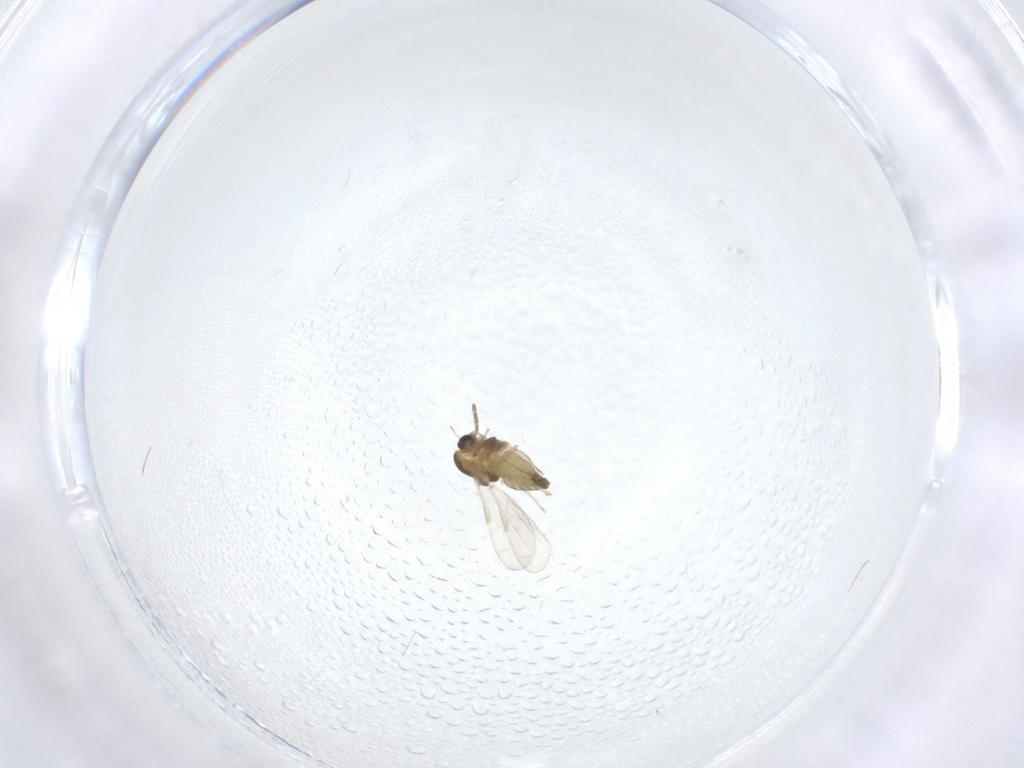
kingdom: Animalia
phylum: Arthropoda
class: Insecta
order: Diptera
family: Chironomidae
